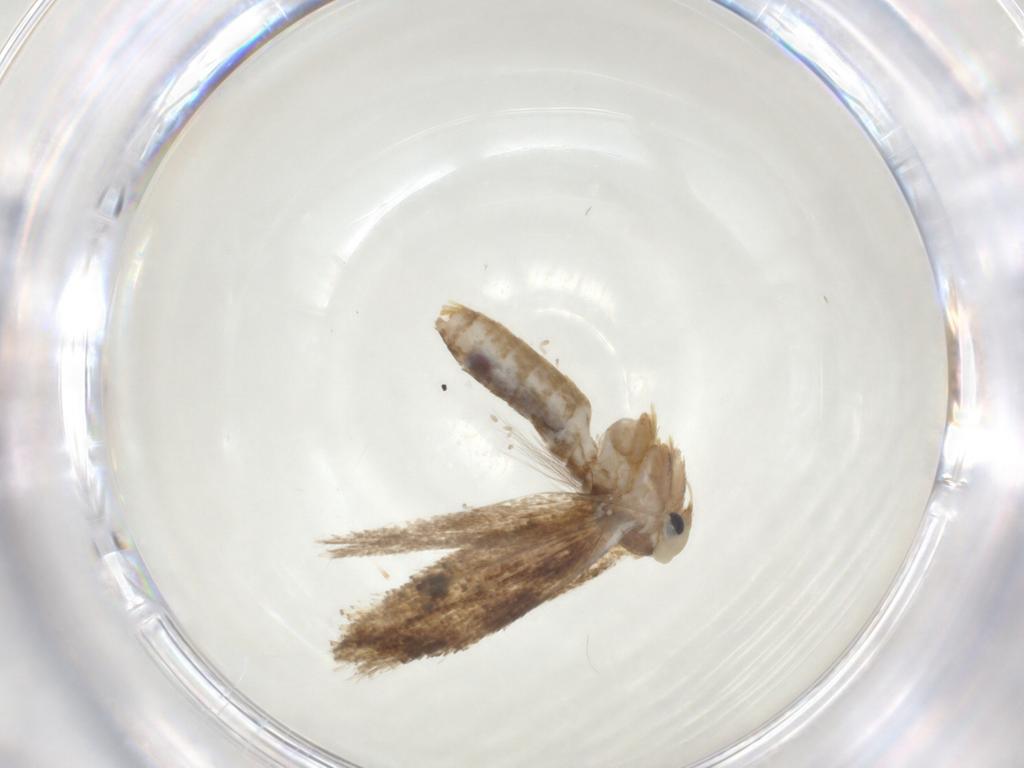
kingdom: Animalia
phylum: Arthropoda
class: Insecta
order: Lepidoptera
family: Bucculatricidae
